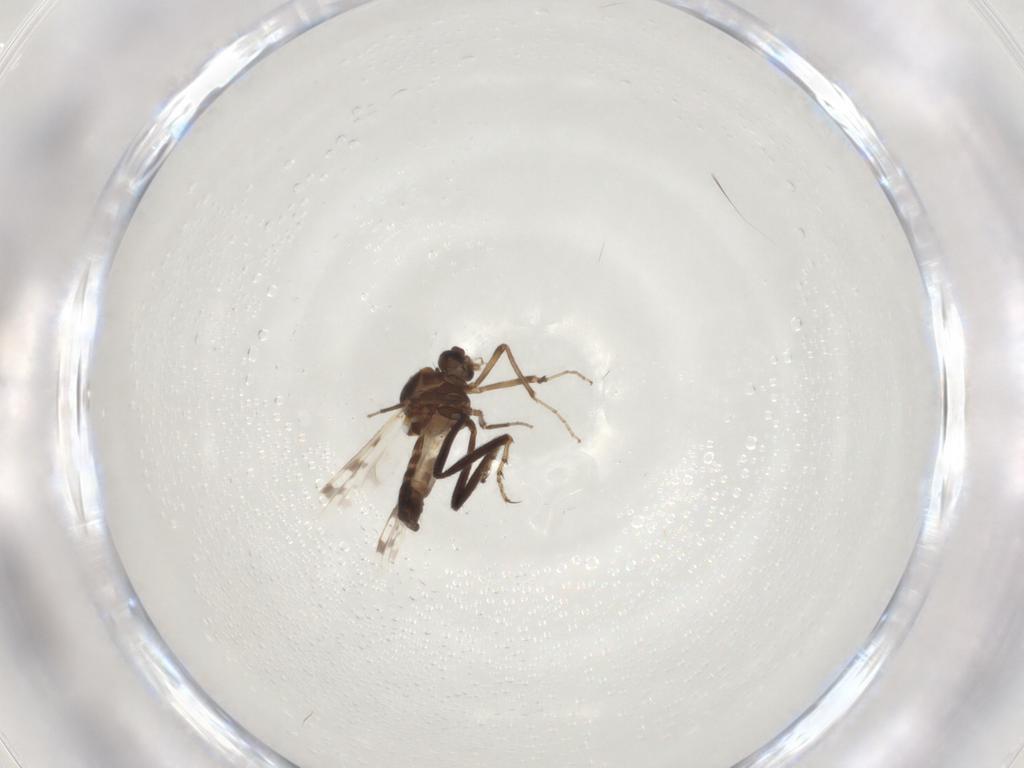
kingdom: Animalia
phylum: Arthropoda
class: Insecta
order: Diptera
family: Ceratopogonidae
